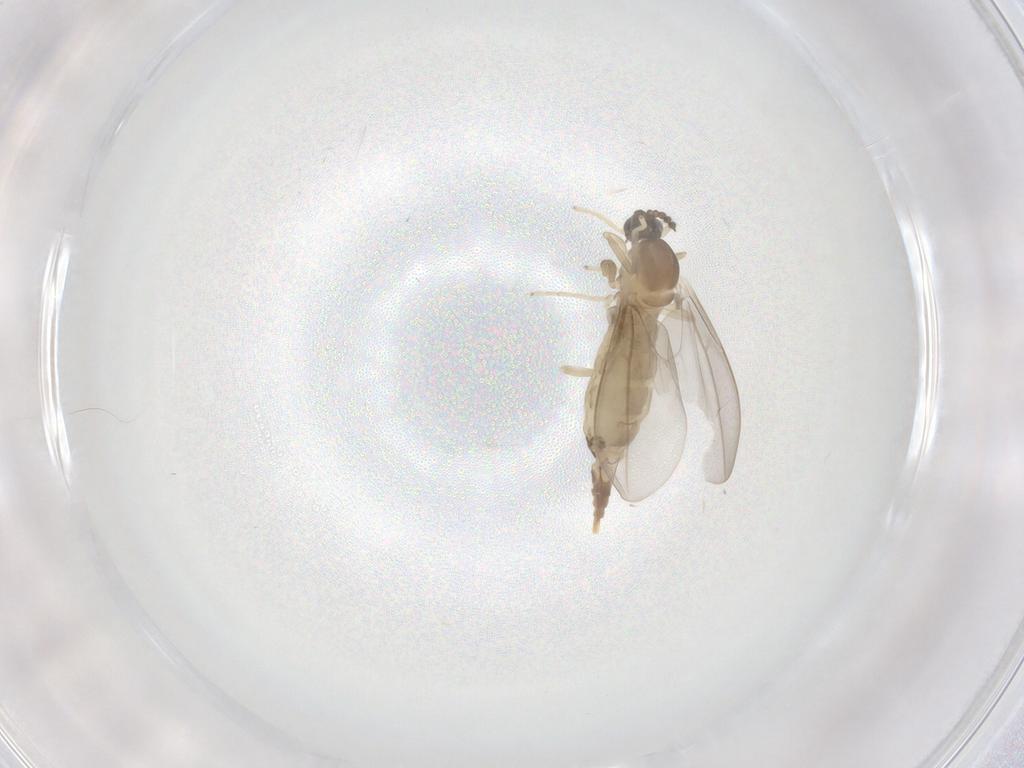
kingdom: Animalia
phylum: Arthropoda
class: Insecta
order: Diptera
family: Cecidomyiidae
